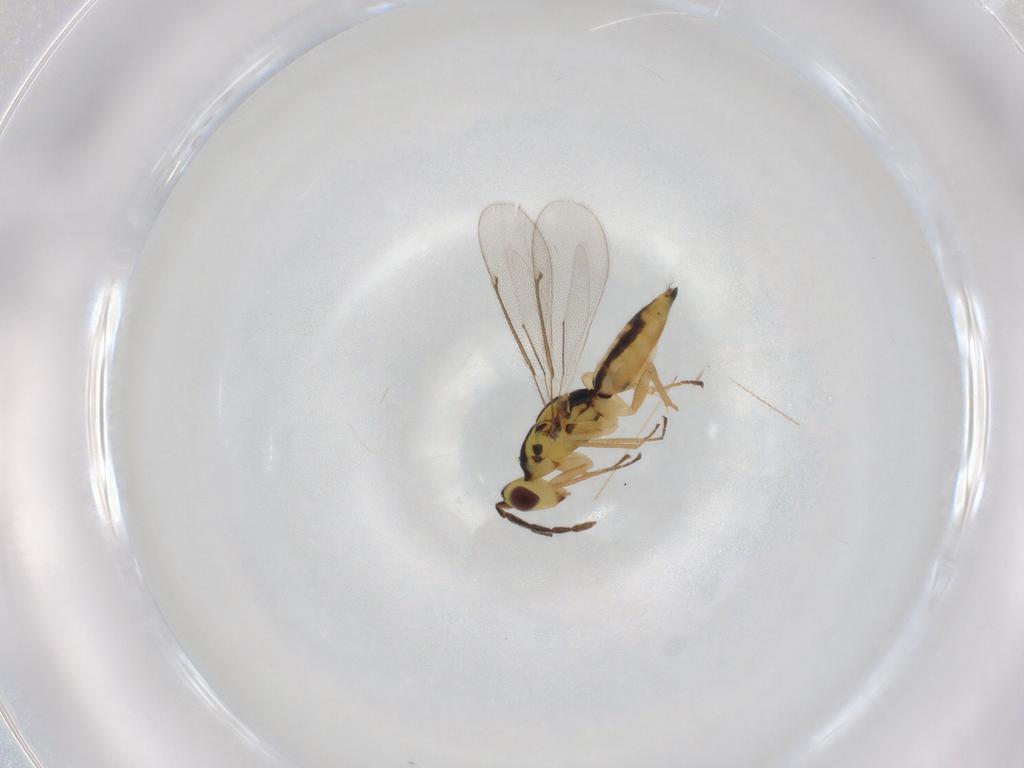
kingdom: Animalia
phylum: Arthropoda
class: Insecta
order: Hymenoptera
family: Eulophidae
